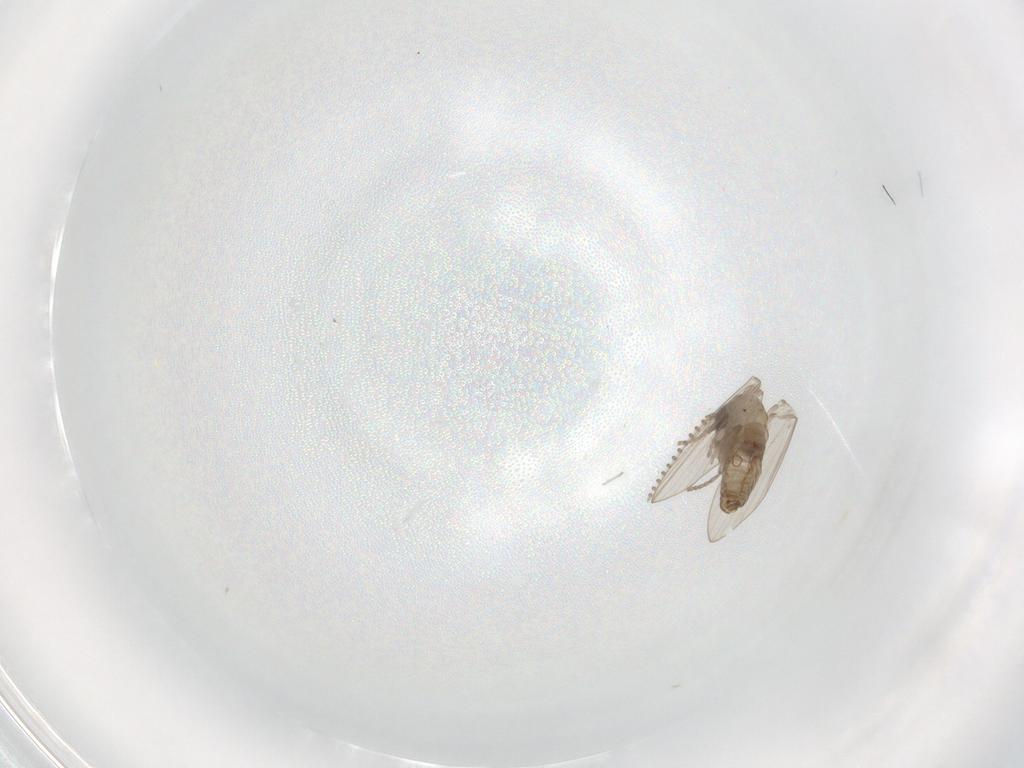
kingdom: Animalia
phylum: Arthropoda
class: Insecta
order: Diptera
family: Psychodidae
